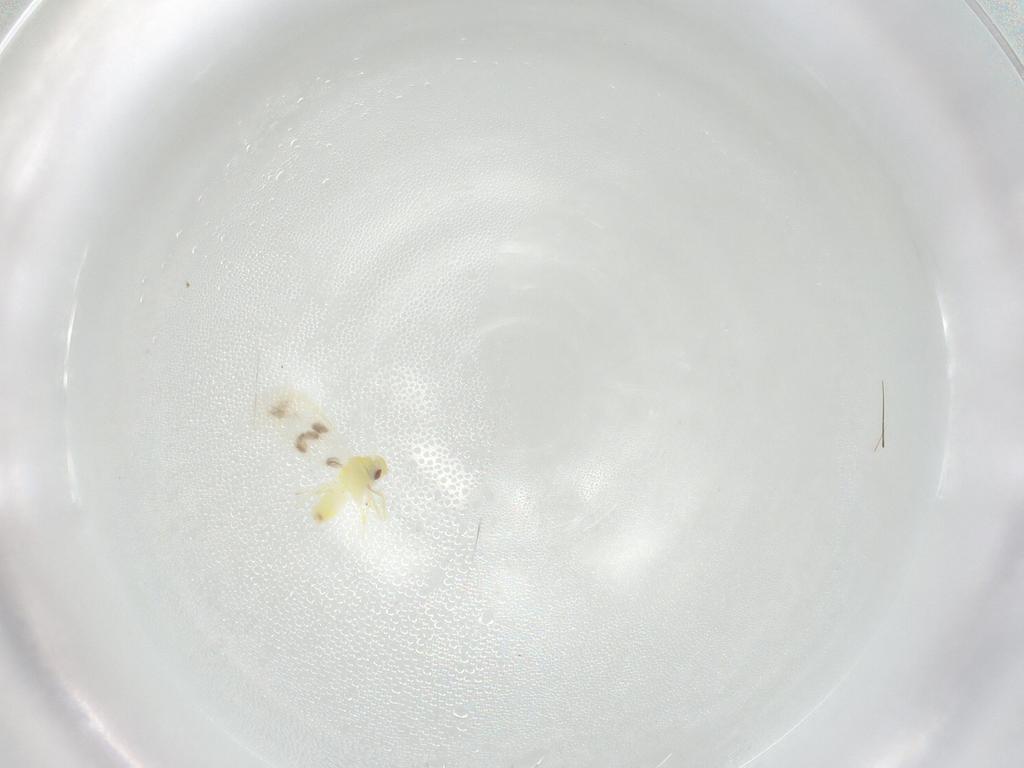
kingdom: Animalia
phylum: Arthropoda
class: Insecta
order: Hemiptera
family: Aleyrodidae
